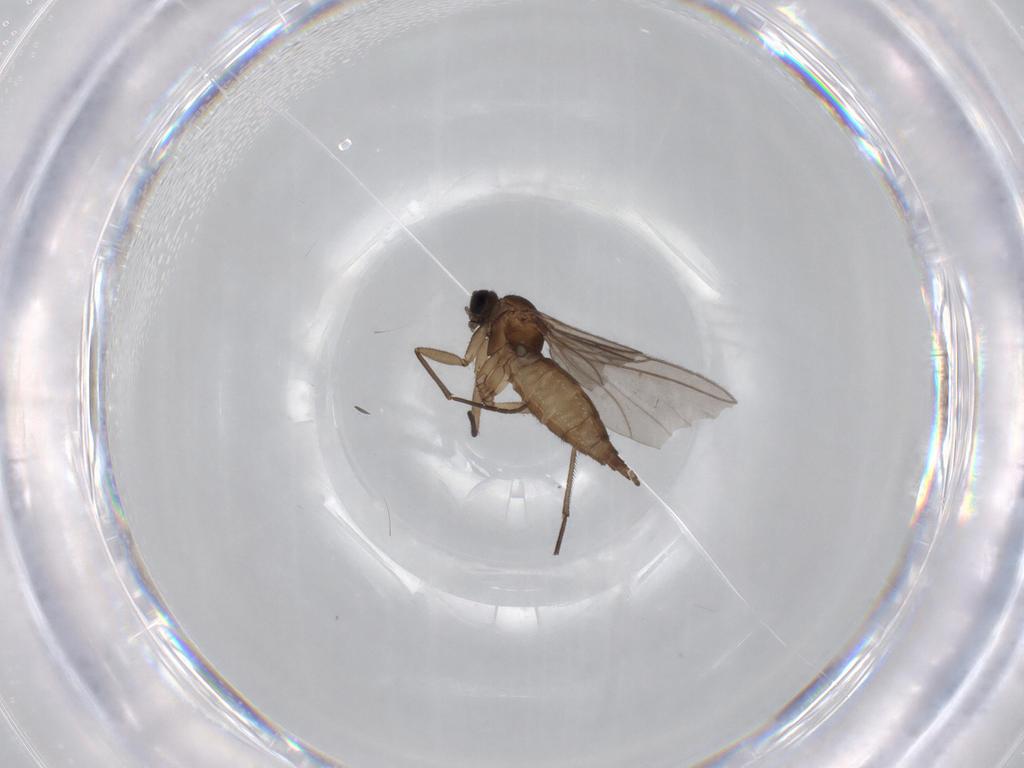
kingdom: Animalia
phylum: Arthropoda
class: Insecta
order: Diptera
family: Sciaridae
